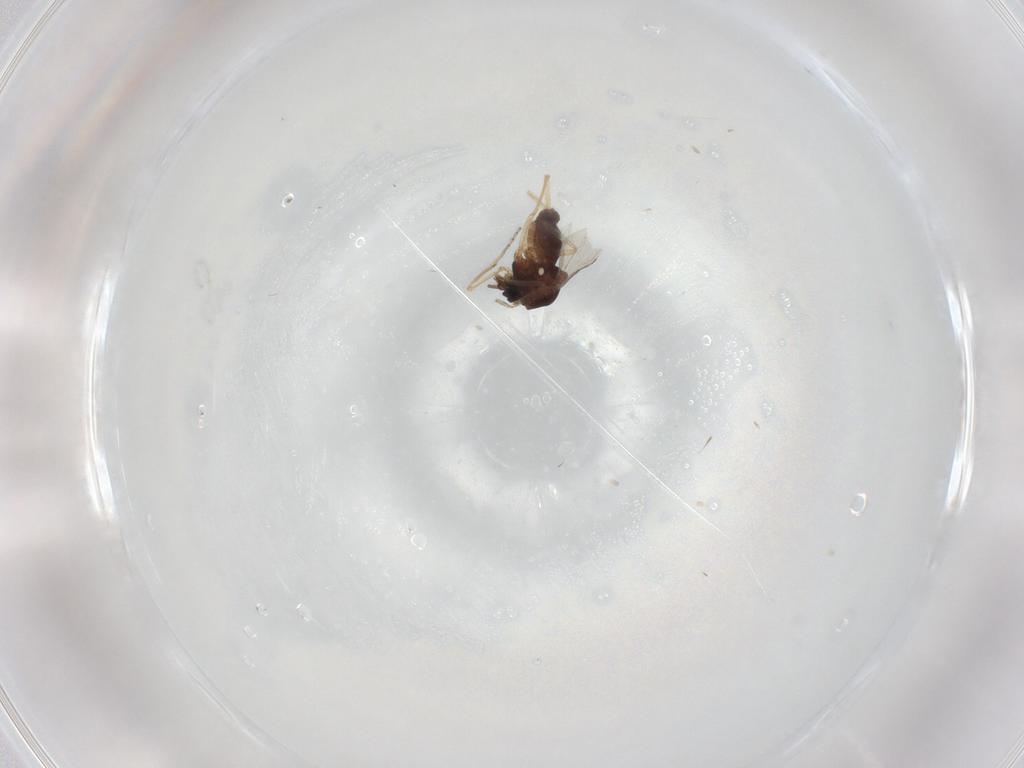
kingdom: Animalia
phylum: Arthropoda
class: Insecta
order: Diptera
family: Ceratopogonidae
